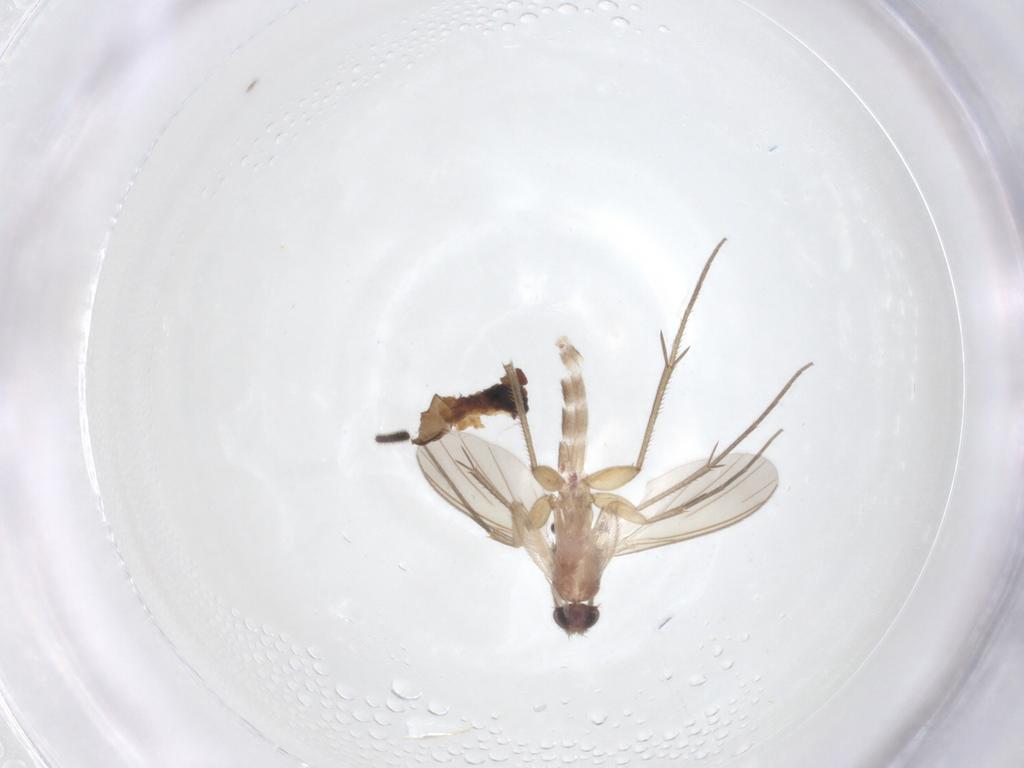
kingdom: Animalia
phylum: Arthropoda
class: Insecta
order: Diptera
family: Mycetophilidae
